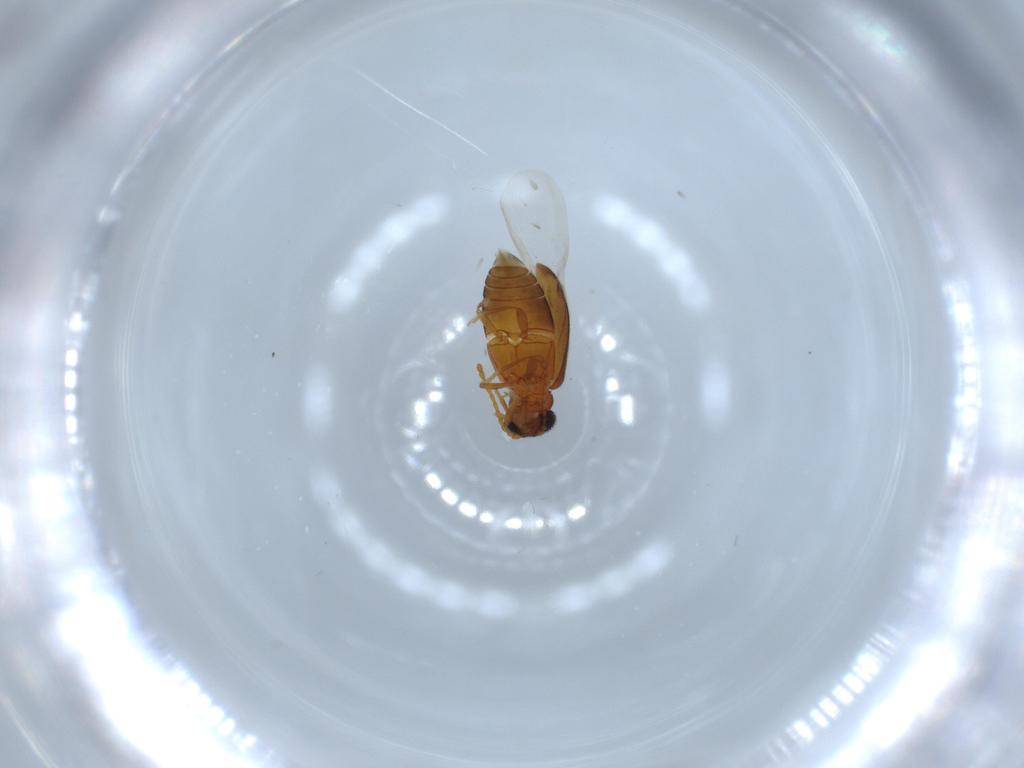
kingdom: Animalia
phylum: Arthropoda
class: Insecta
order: Coleoptera
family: Aderidae
